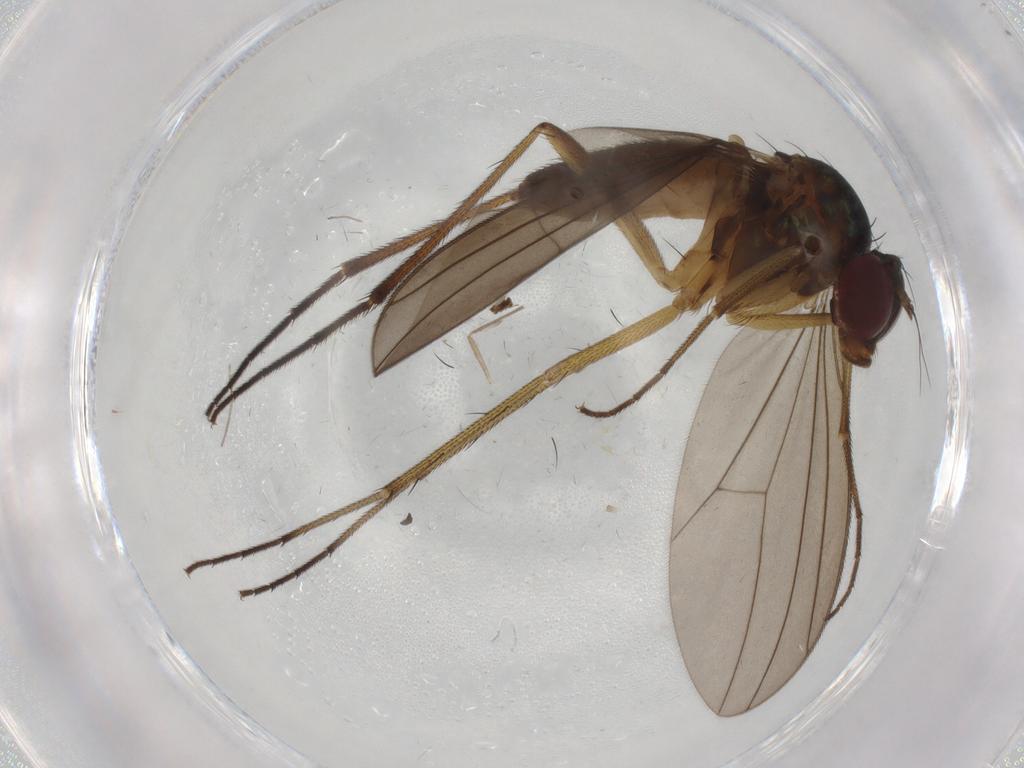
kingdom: Animalia
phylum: Arthropoda
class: Insecta
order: Diptera
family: Dolichopodidae
